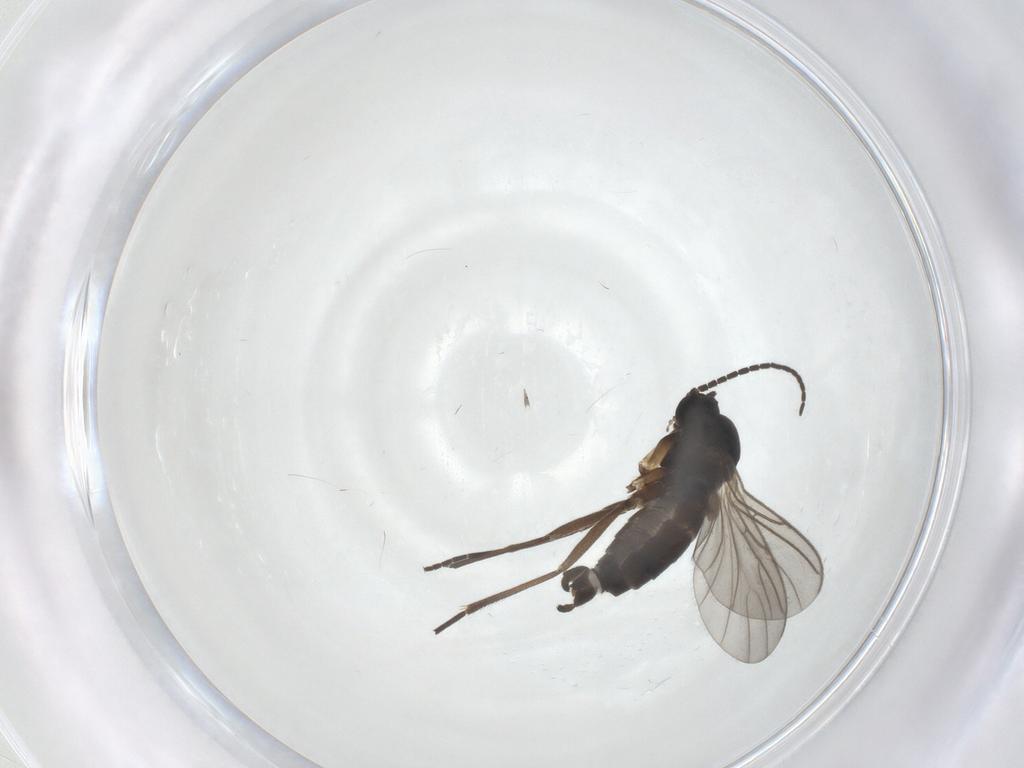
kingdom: Animalia
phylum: Arthropoda
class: Insecta
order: Diptera
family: Sciaridae
